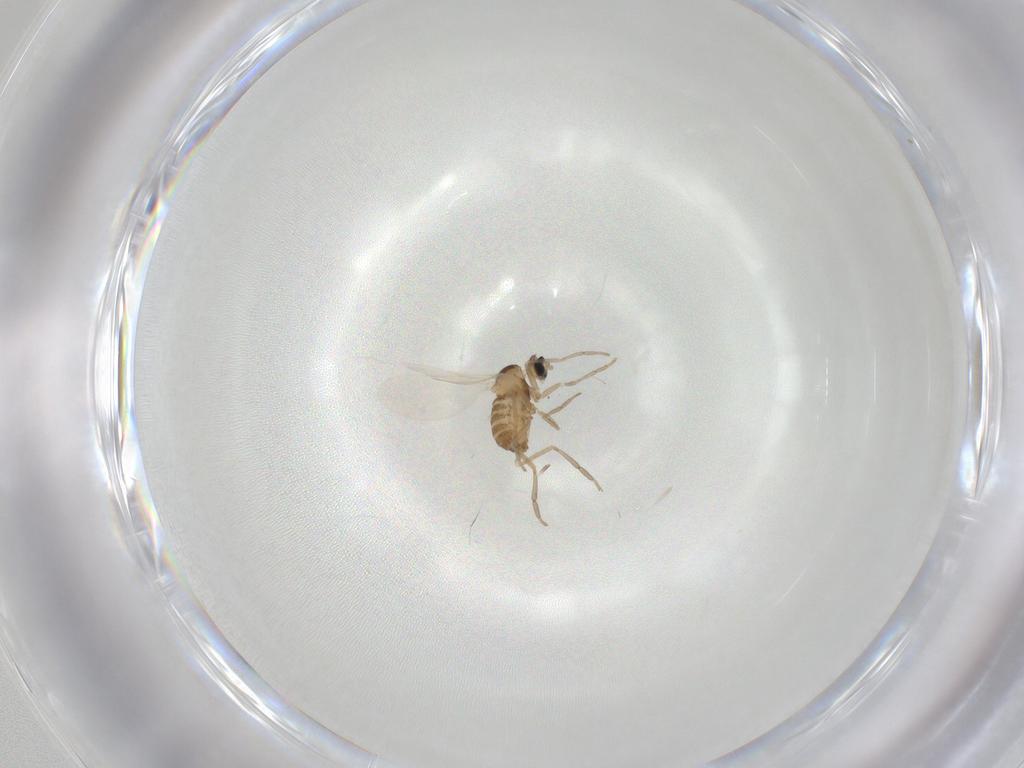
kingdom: Animalia
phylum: Arthropoda
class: Insecta
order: Diptera
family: Cecidomyiidae
